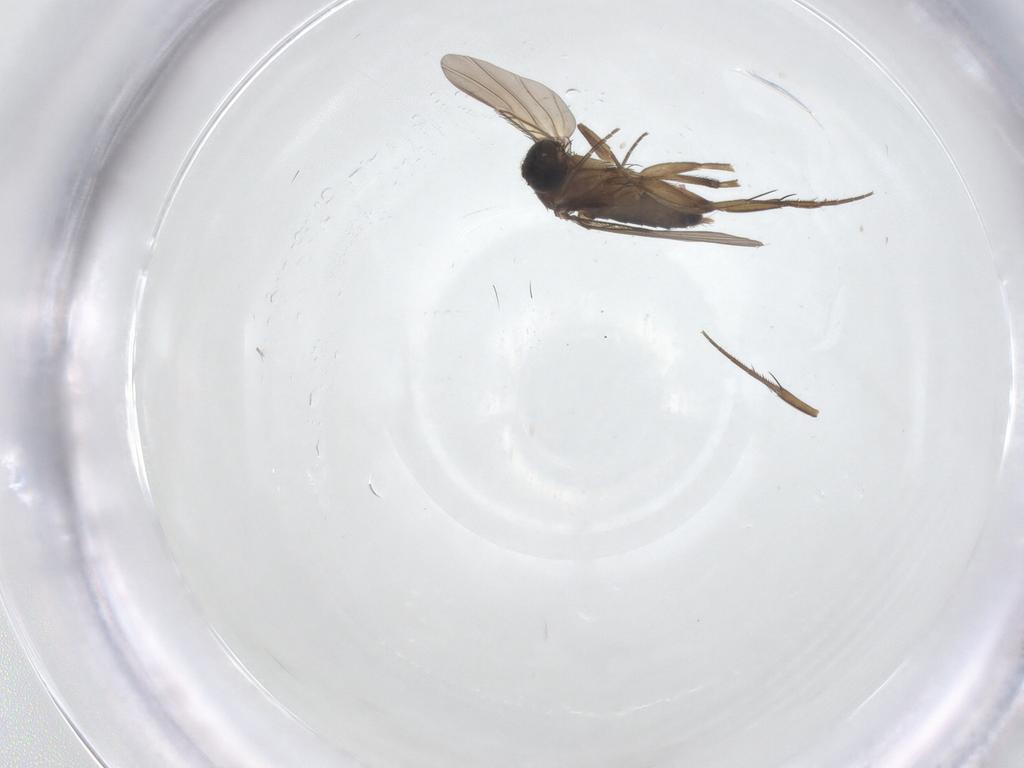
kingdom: Animalia
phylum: Arthropoda
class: Insecta
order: Diptera
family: Phoridae
